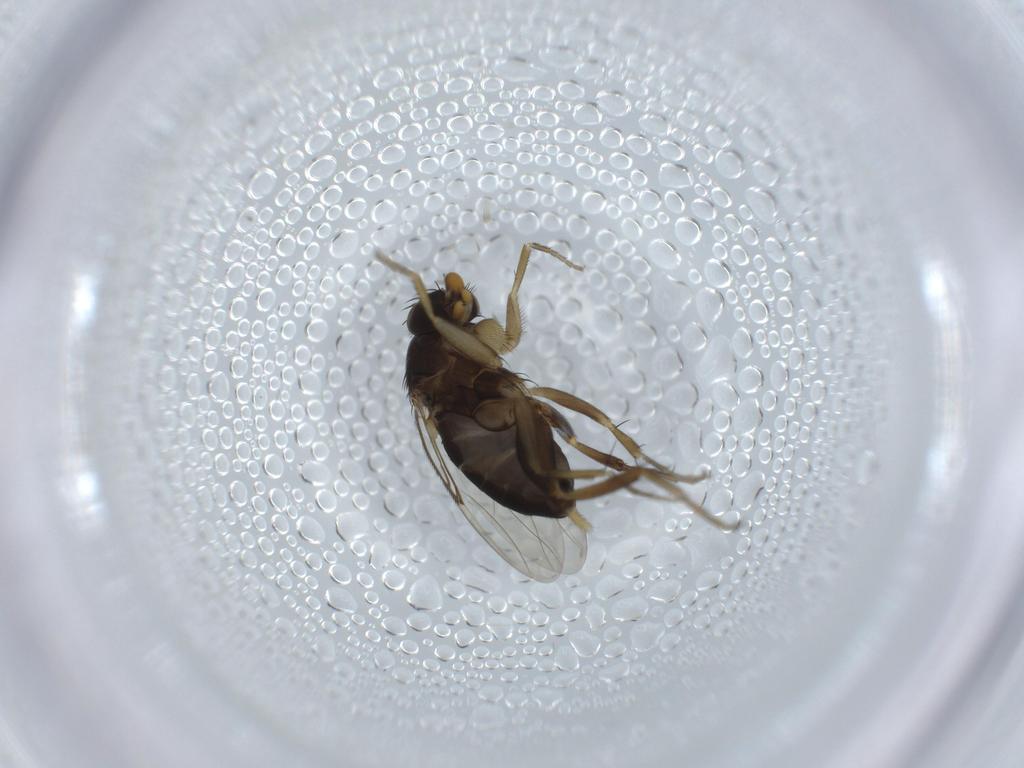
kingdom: Animalia
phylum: Arthropoda
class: Insecta
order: Diptera
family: Phoridae
